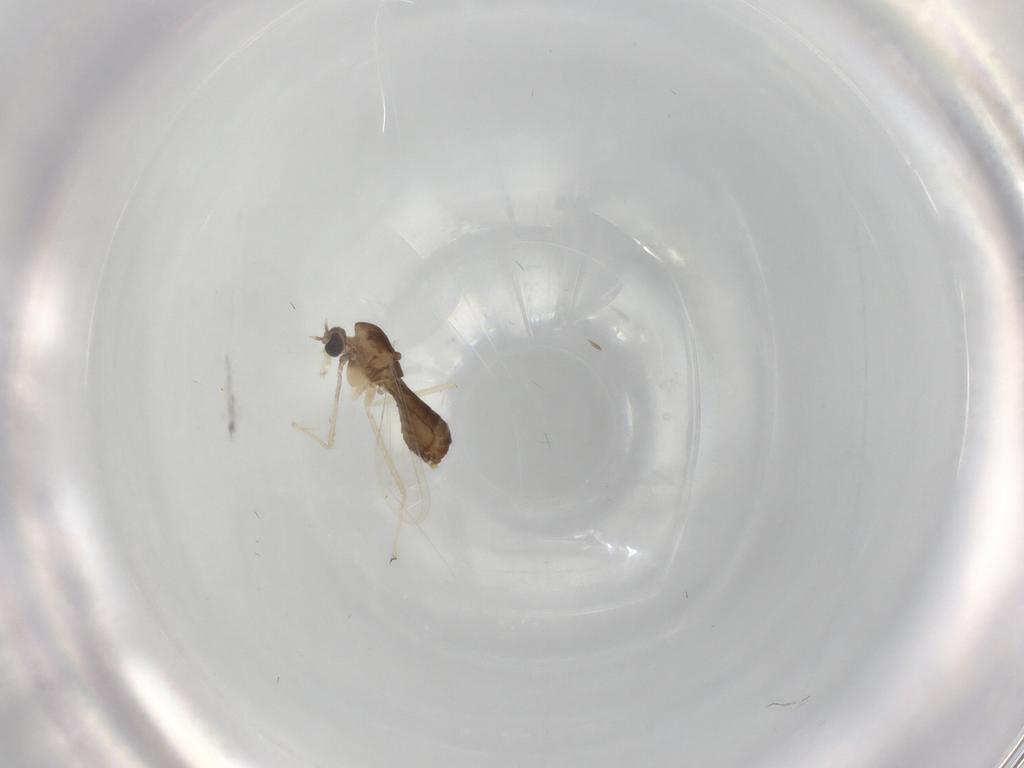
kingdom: Animalia
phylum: Arthropoda
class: Insecta
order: Diptera
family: Chironomidae
